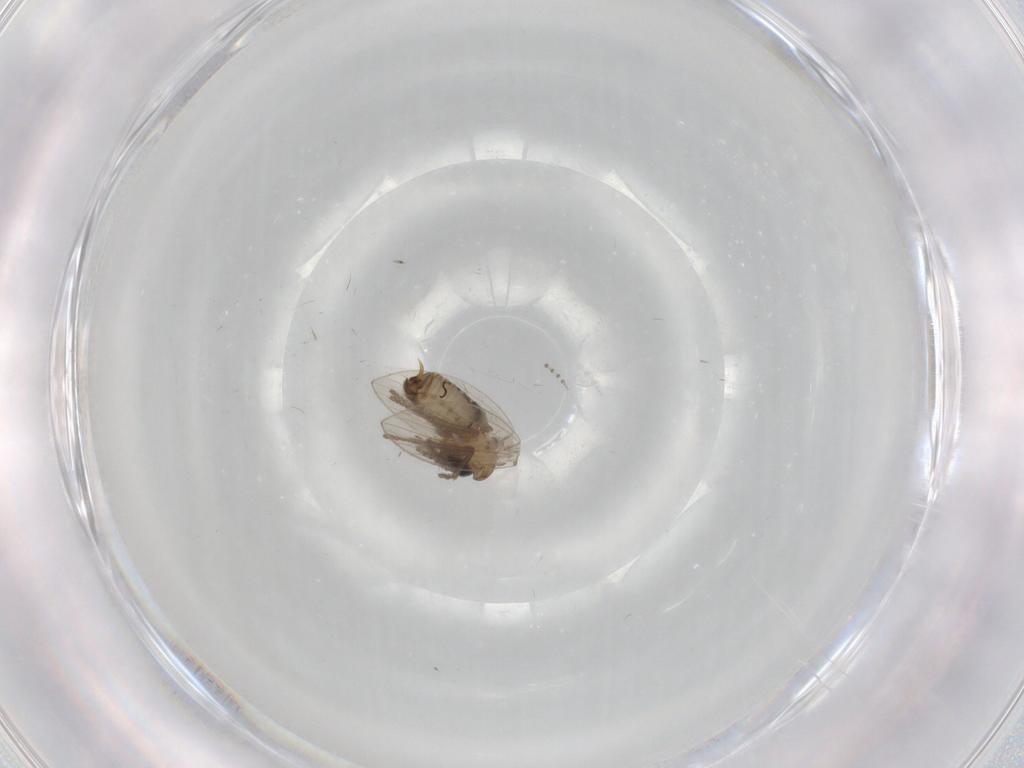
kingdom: Animalia
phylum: Arthropoda
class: Insecta
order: Diptera
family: Psychodidae
